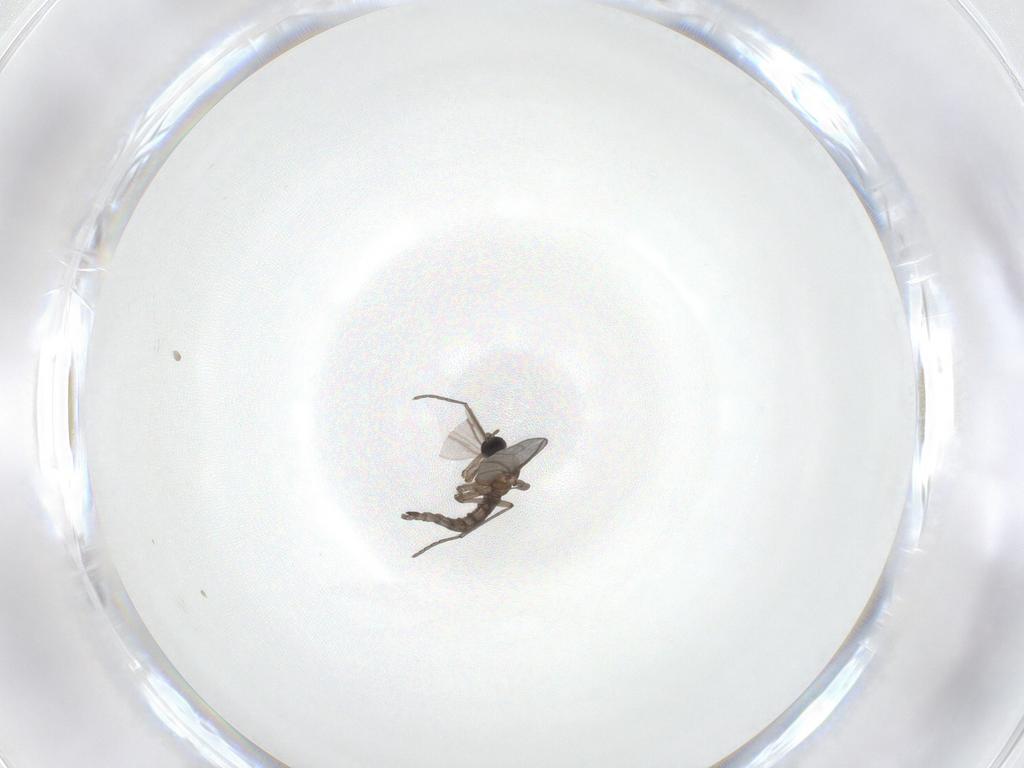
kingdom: Animalia
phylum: Arthropoda
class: Insecta
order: Diptera
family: Sciaridae
